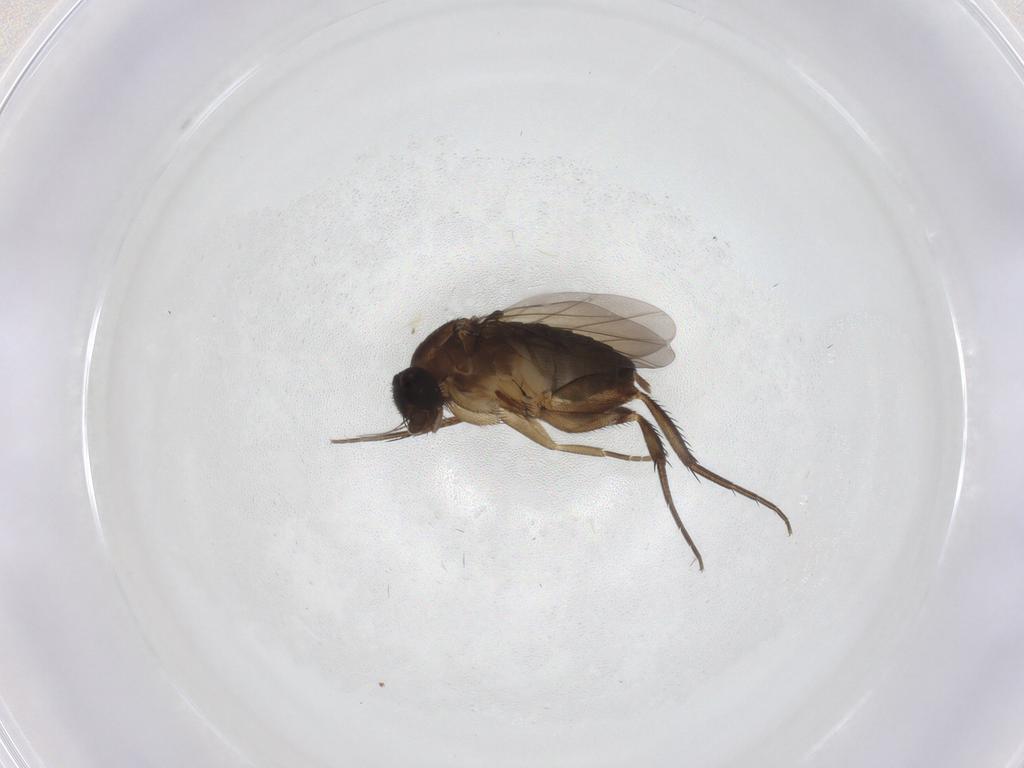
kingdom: Animalia
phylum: Arthropoda
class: Insecta
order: Diptera
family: Phoridae
